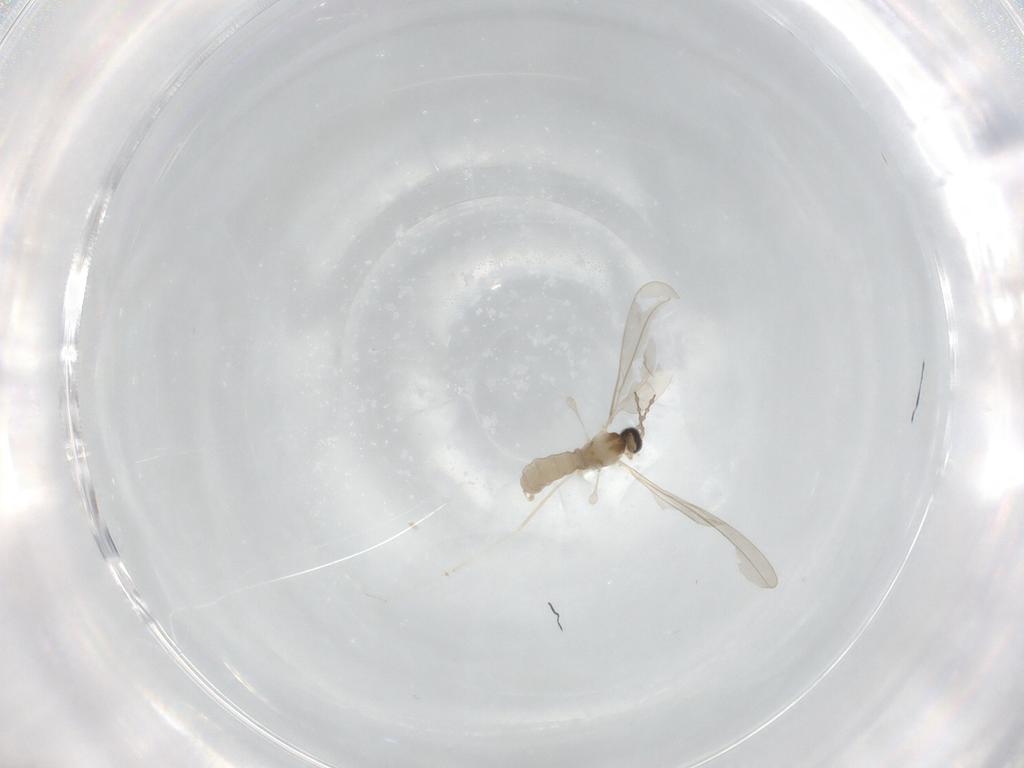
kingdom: Animalia
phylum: Arthropoda
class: Insecta
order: Diptera
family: Cecidomyiidae
